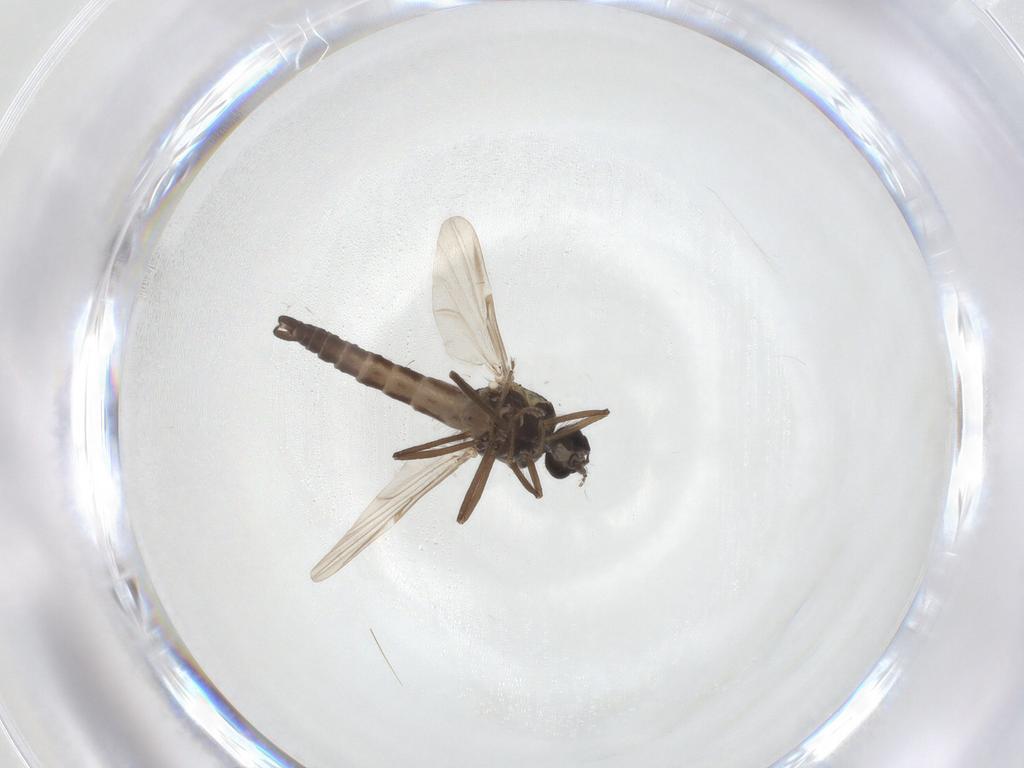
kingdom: Animalia
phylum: Arthropoda
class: Insecta
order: Diptera
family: Ceratopogonidae
